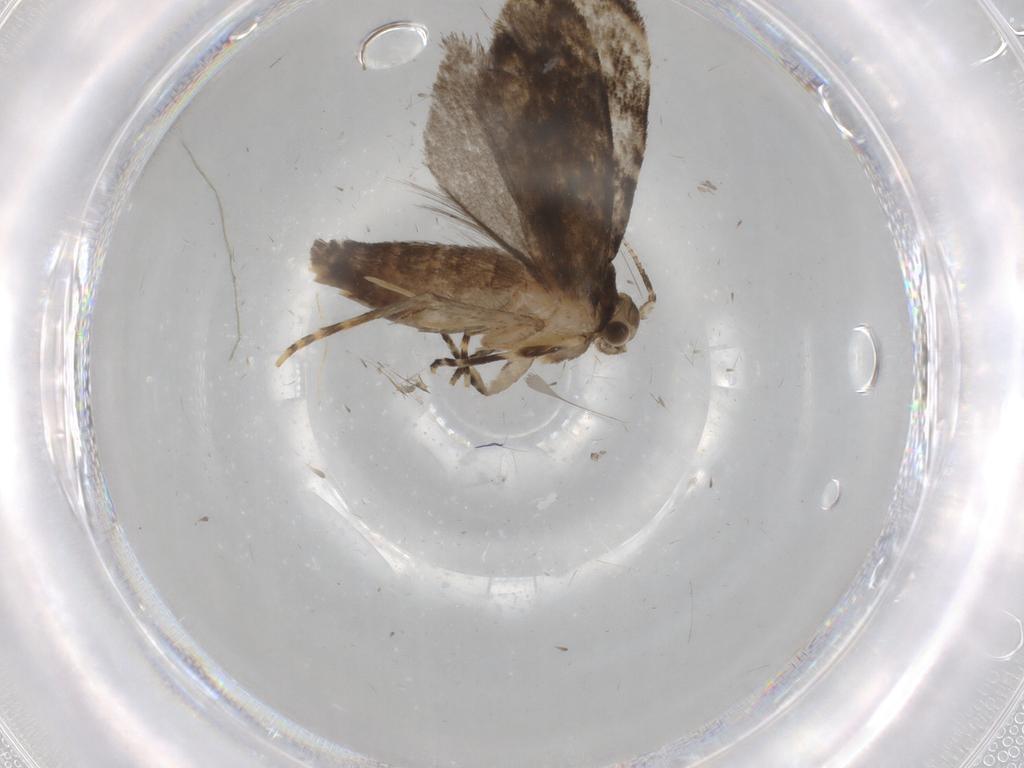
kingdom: Animalia
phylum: Arthropoda
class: Insecta
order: Lepidoptera
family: Tineidae
